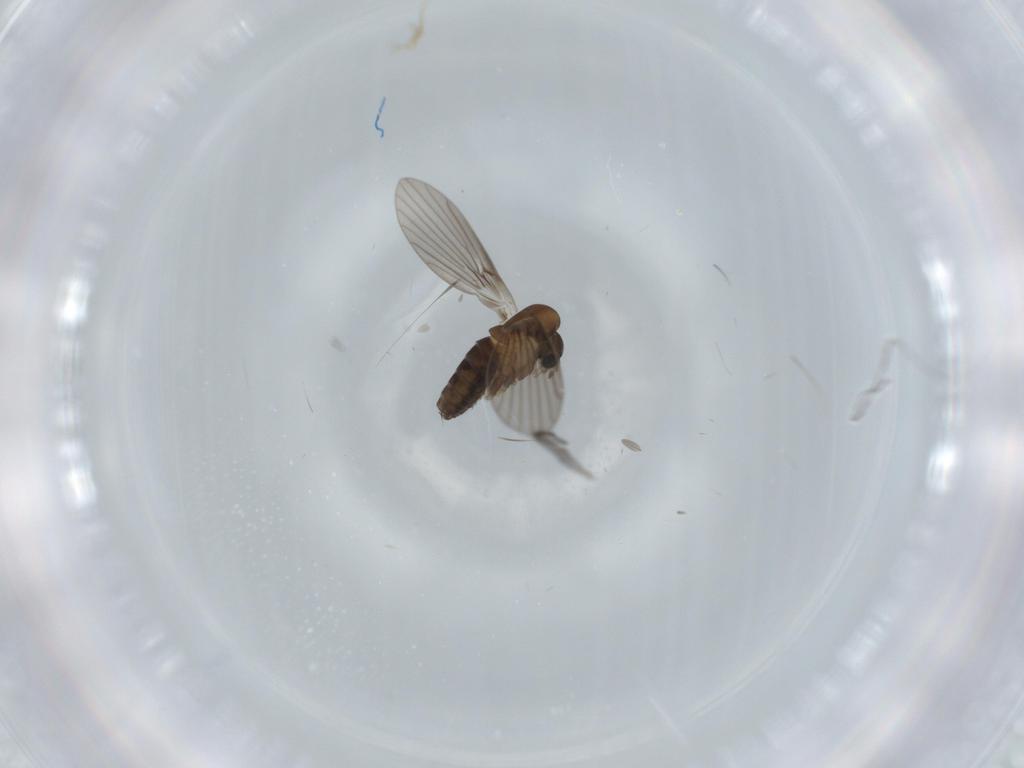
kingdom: Animalia
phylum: Arthropoda
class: Insecta
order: Diptera
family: Psychodidae
